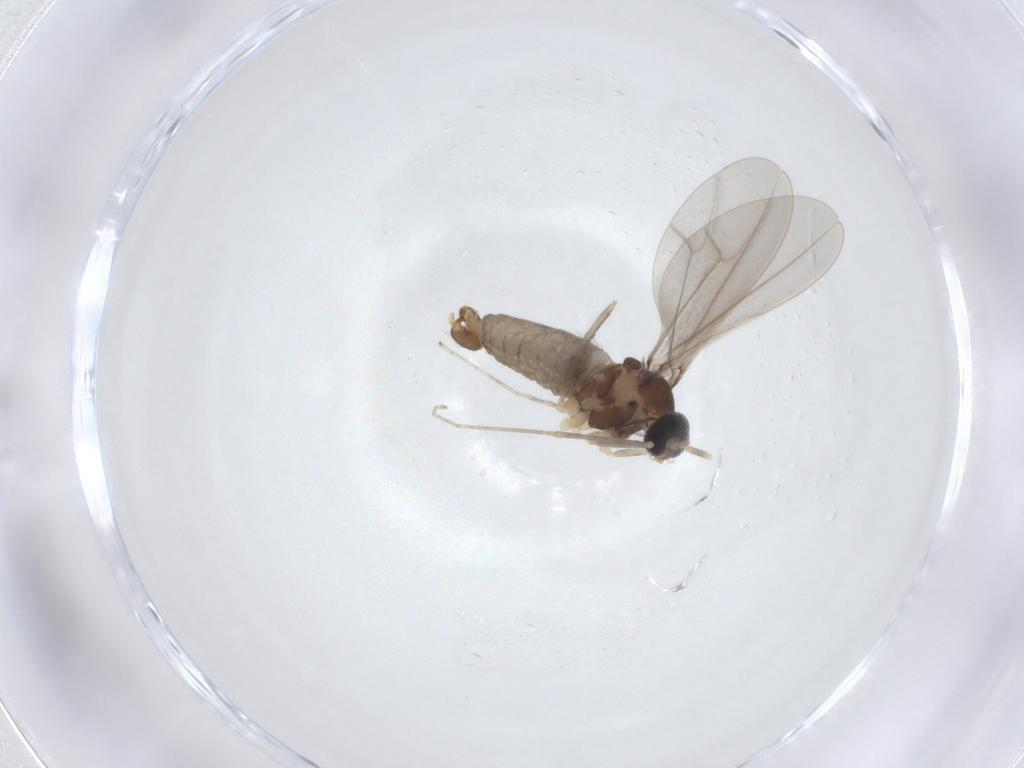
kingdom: Animalia
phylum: Arthropoda
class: Insecta
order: Diptera
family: Cecidomyiidae
